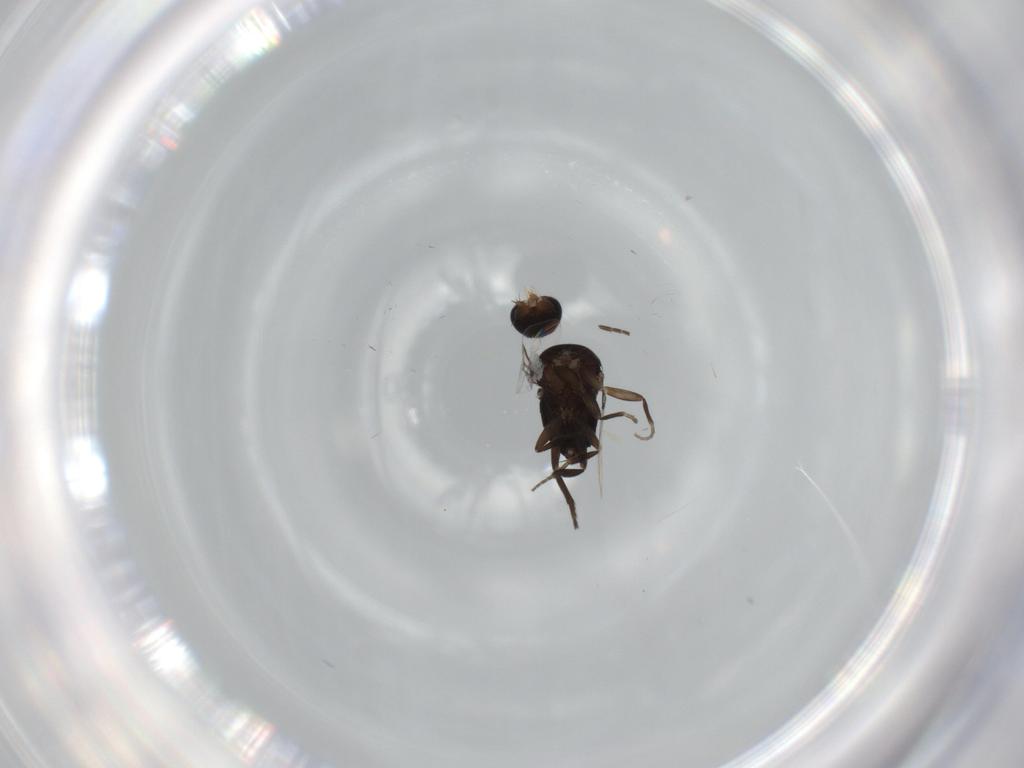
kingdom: Animalia
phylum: Arthropoda
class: Insecta
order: Diptera
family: Phoridae
